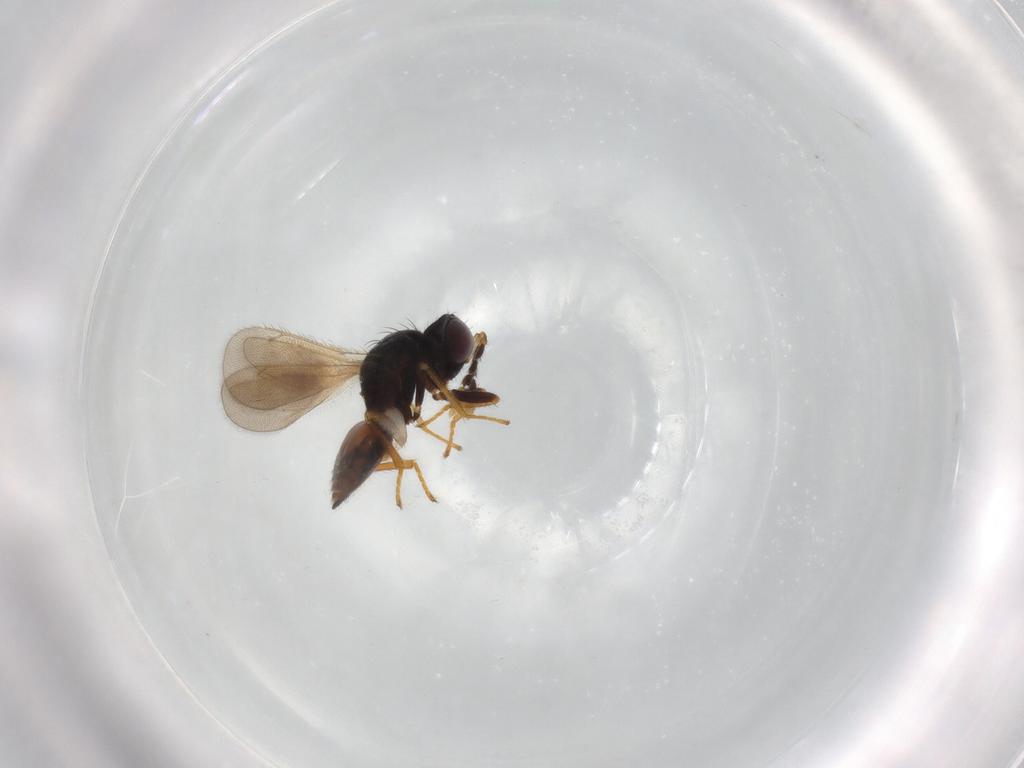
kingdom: Animalia
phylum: Arthropoda
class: Insecta
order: Hymenoptera
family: Eulophidae
